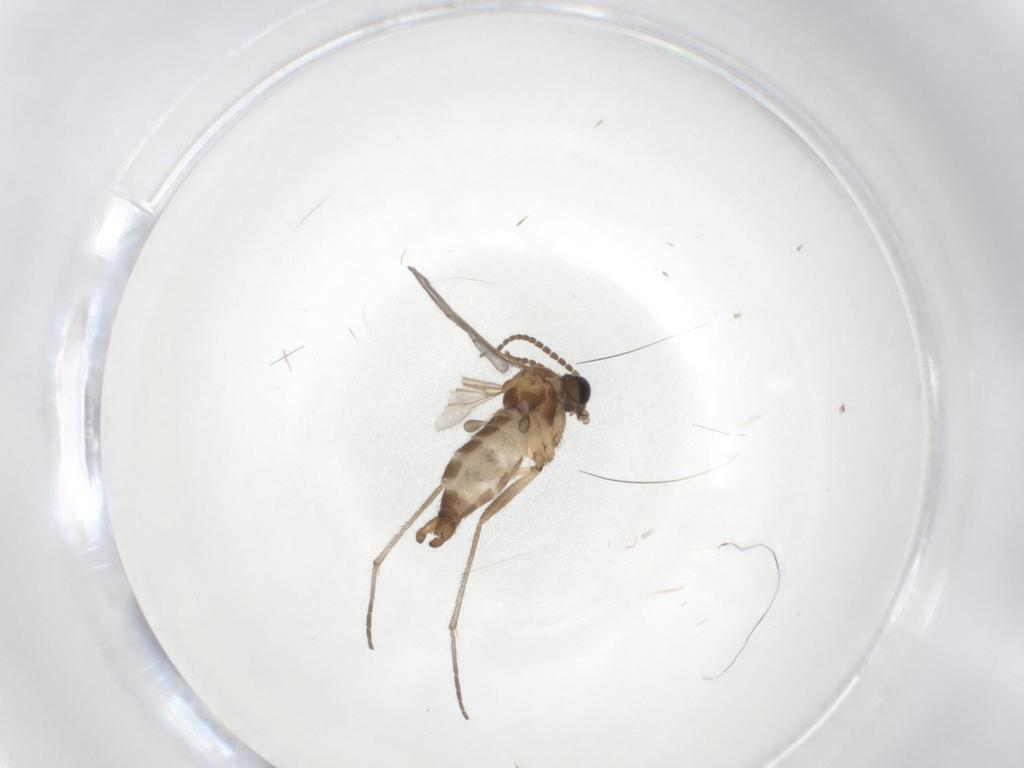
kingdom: Animalia
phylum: Arthropoda
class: Insecta
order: Diptera
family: Sciaridae
